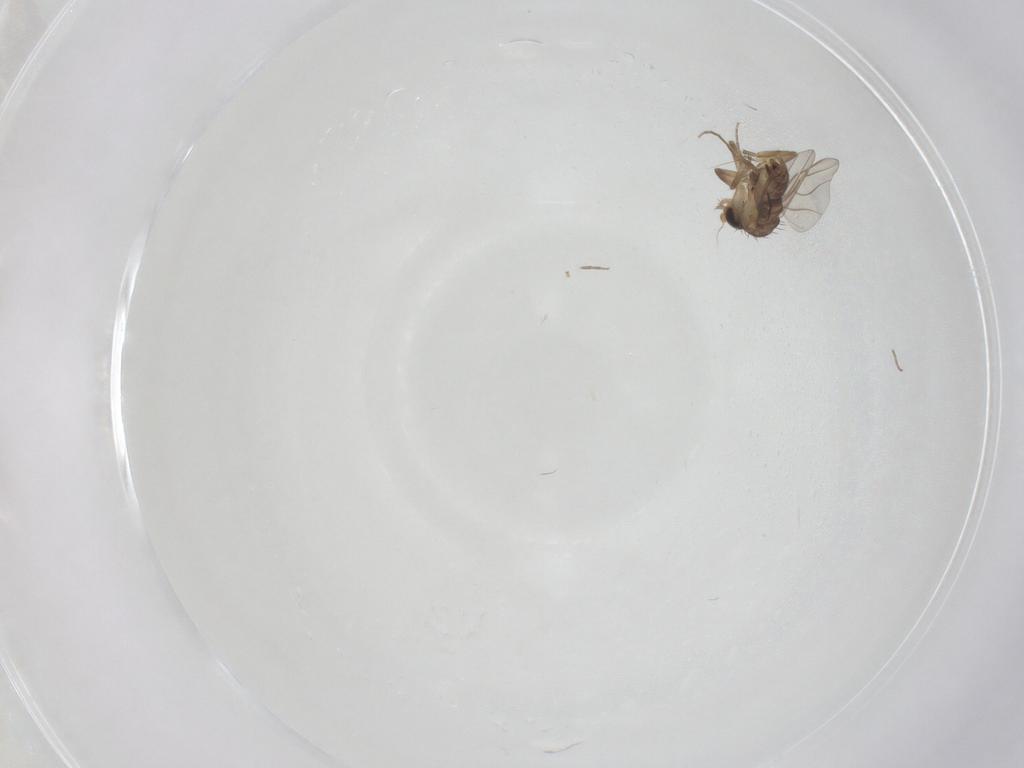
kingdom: Animalia
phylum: Arthropoda
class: Insecta
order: Diptera
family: Phoridae
